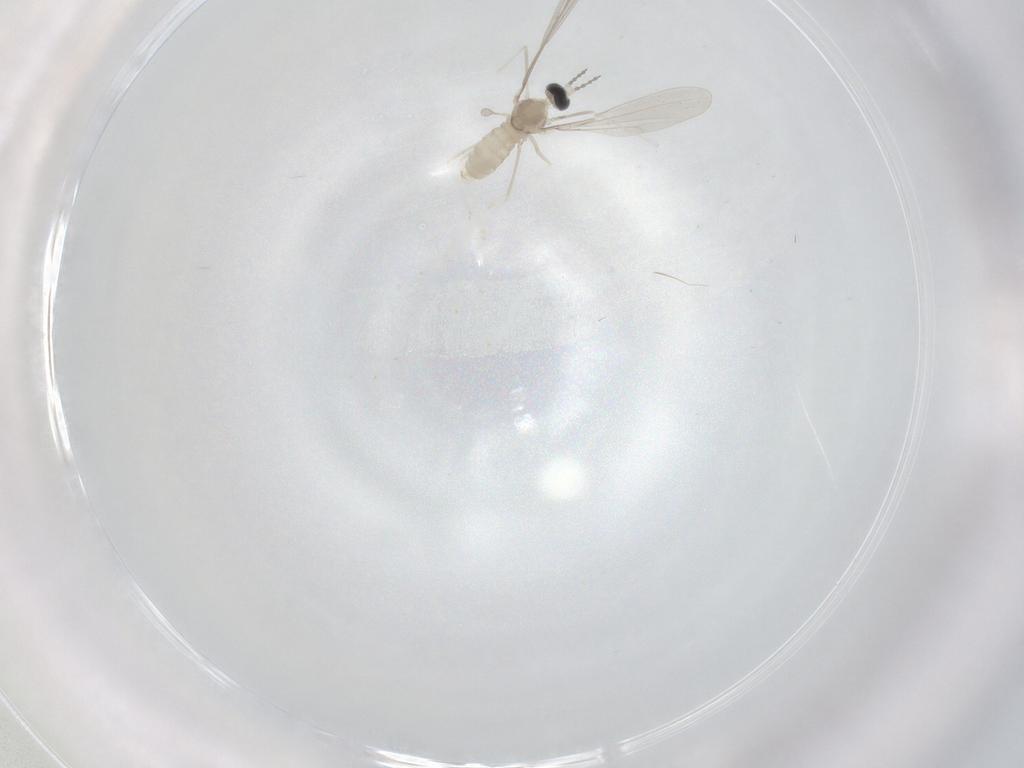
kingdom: Animalia
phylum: Arthropoda
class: Insecta
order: Diptera
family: Cecidomyiidae
